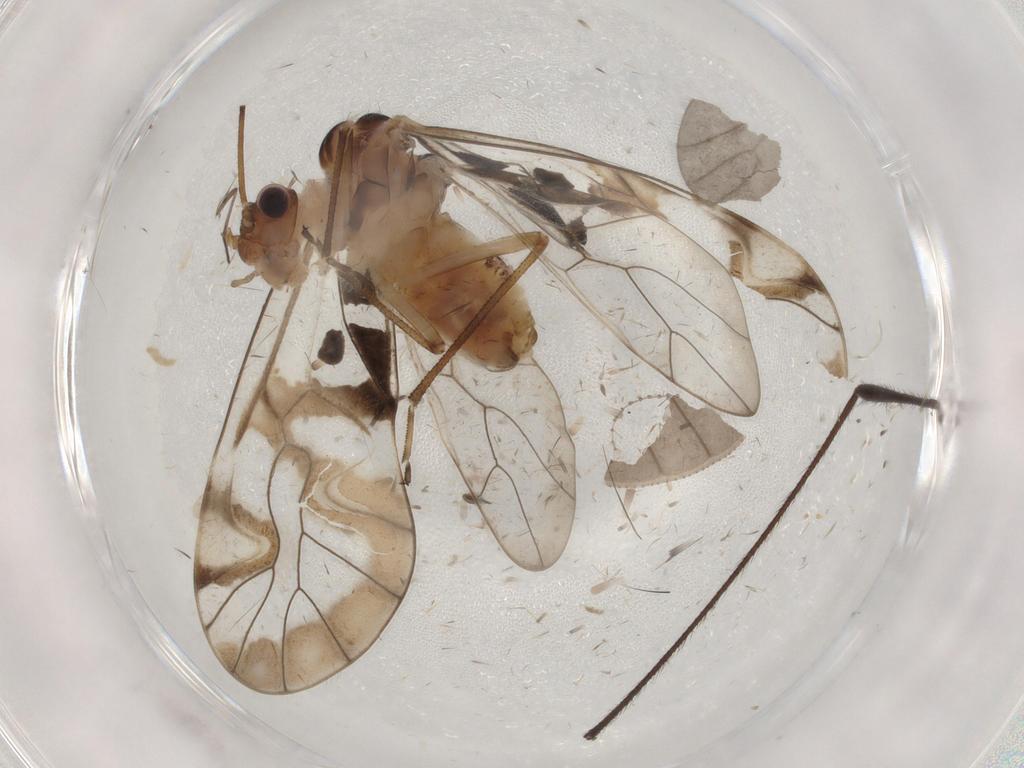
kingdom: Animalia
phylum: Arthropoda
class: Insecta
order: Psocodea
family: Amphipsocidae
